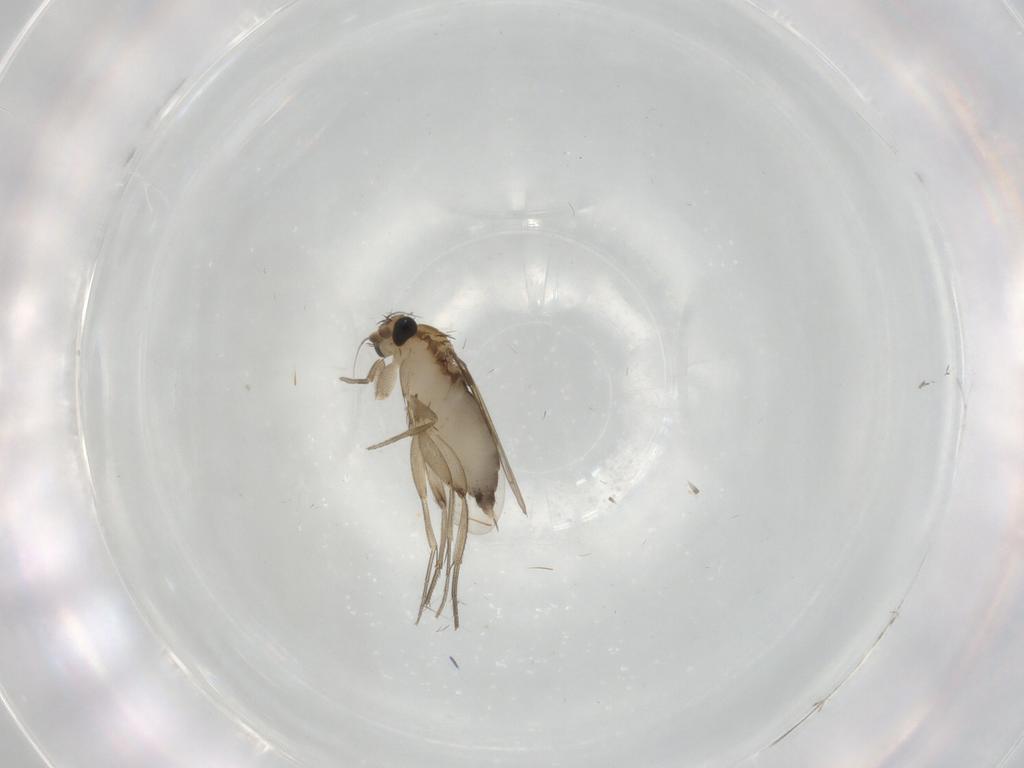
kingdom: Animalia
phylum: Arthropoda
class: Insecta
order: Diptera
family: Phoridae
